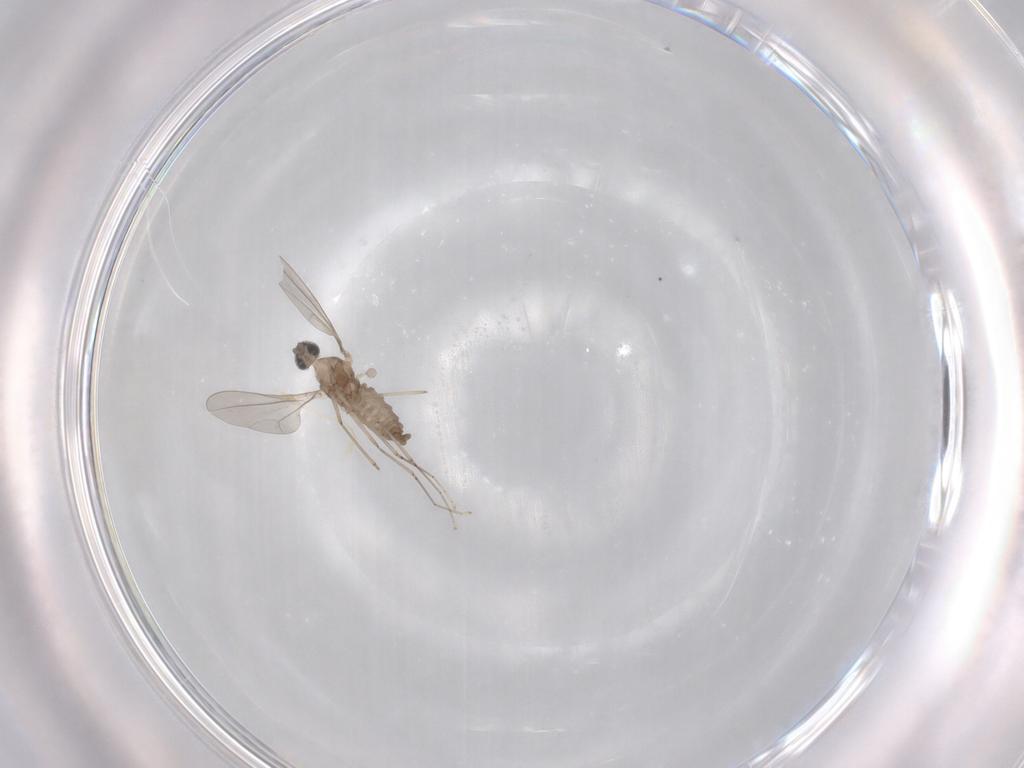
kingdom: Animalia
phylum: Arthropoda
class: Insecta
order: Diptera
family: Cecidomyiidae
